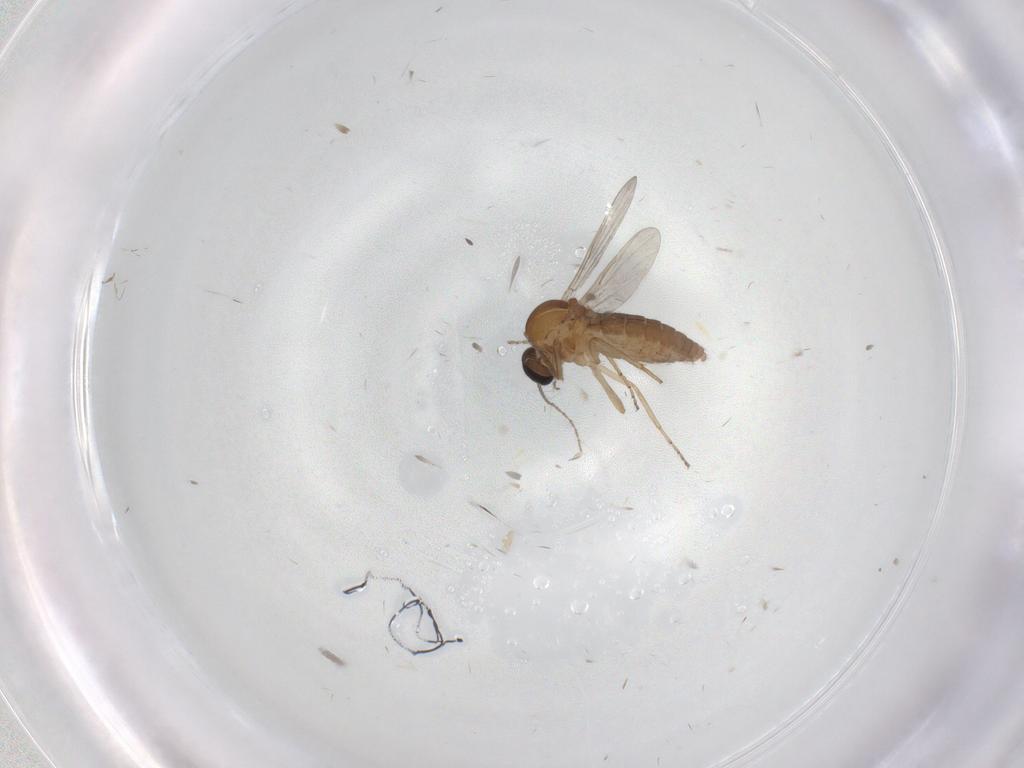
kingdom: Animalia
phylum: Arthropoda
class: Insecta
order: Diptera
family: Ceratopogonidae
